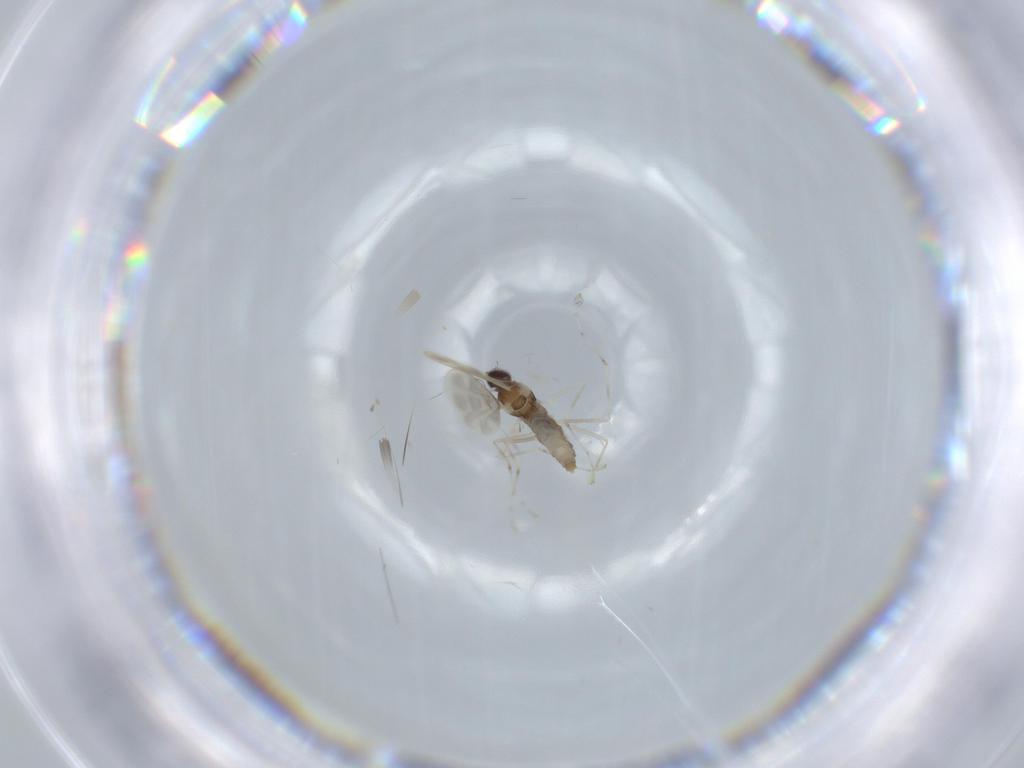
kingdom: Animalia
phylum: Arthropoda
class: Insecta
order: Diptera
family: Cecidomyiidae
